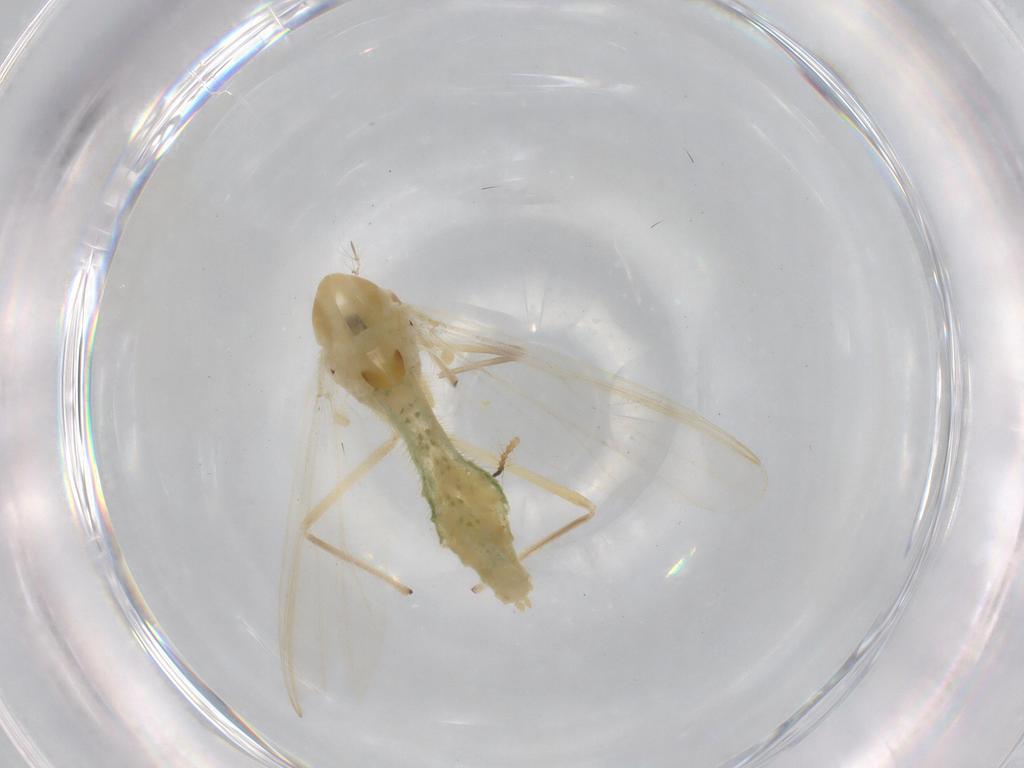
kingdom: Animalia
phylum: Arthropoda
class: Insecta
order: Diptera
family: Chironomidae
